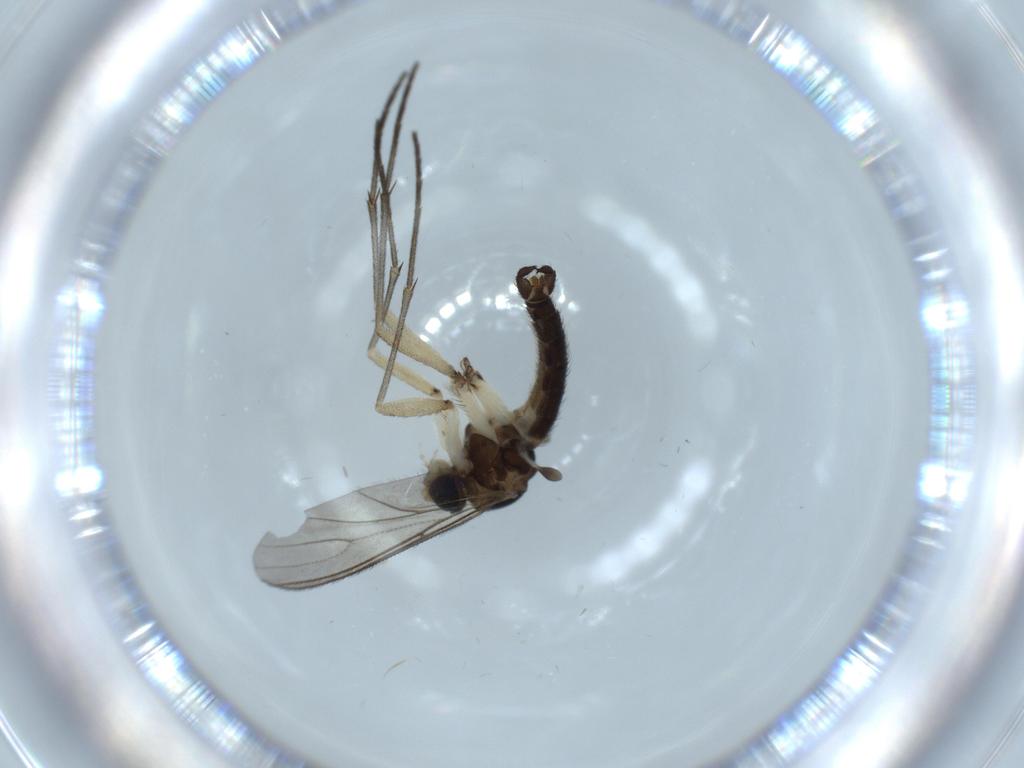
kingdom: Animalia
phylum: Arthropoda
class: Insecta
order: Diptera
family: Sciaridae
